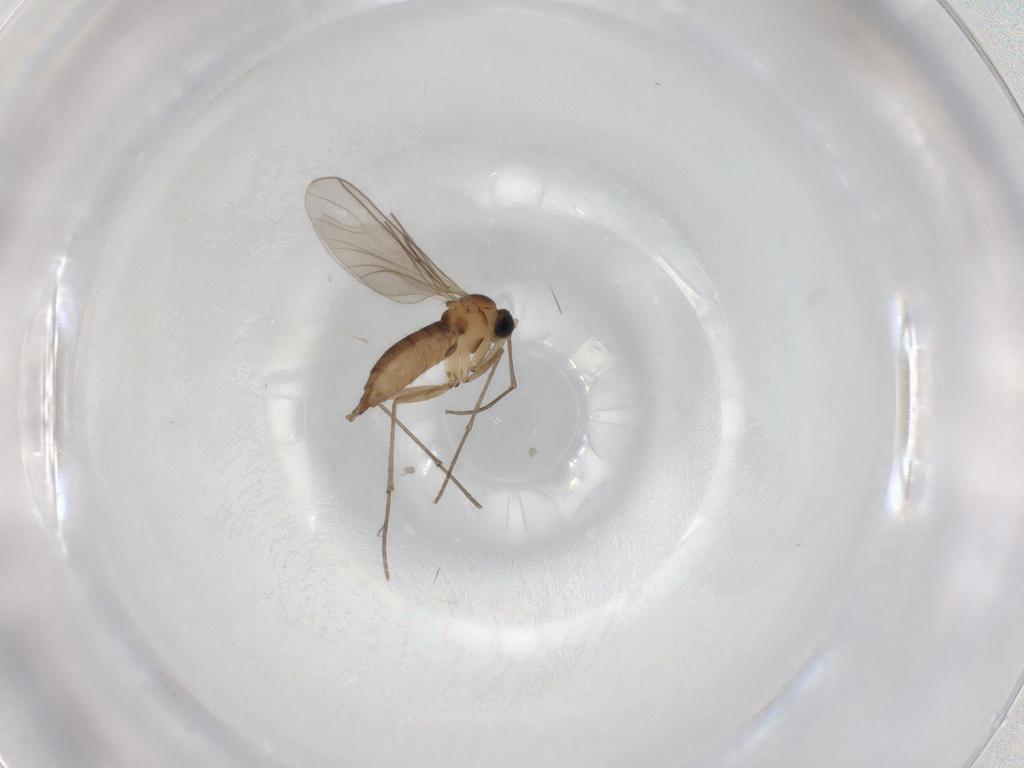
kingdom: Animalia
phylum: Arthropoda
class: Insecta
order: Diptera
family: Sciaridae
